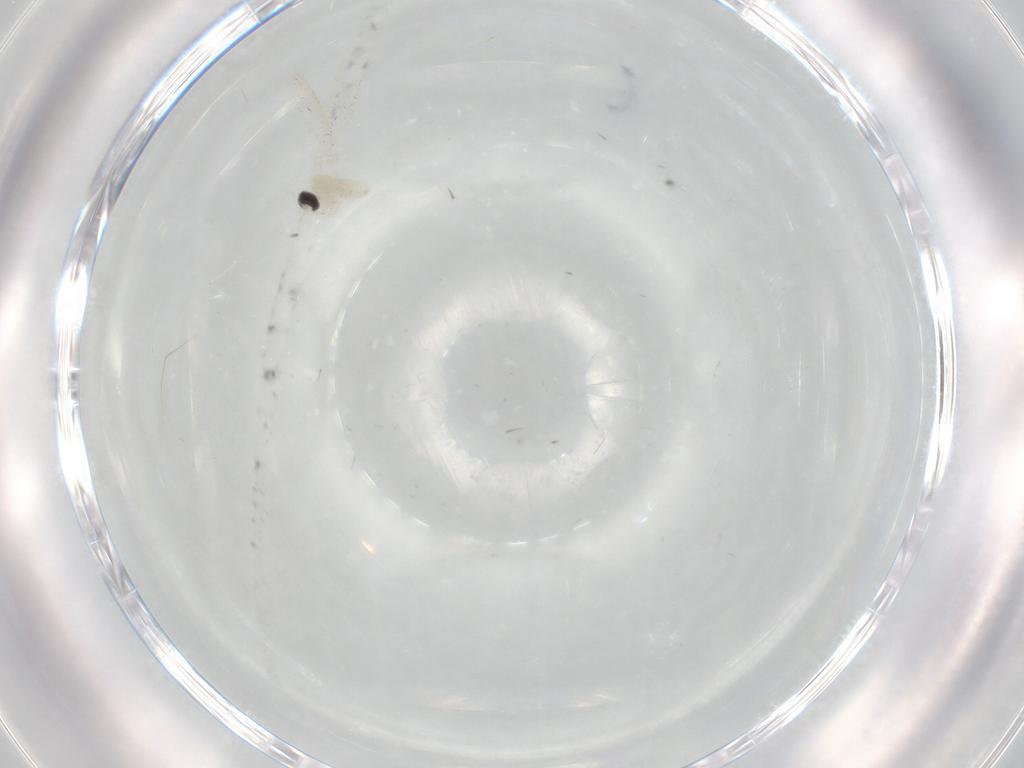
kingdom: Animalia
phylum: Arthropoda
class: Insecta
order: Diptera
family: Cecidomyiidae
